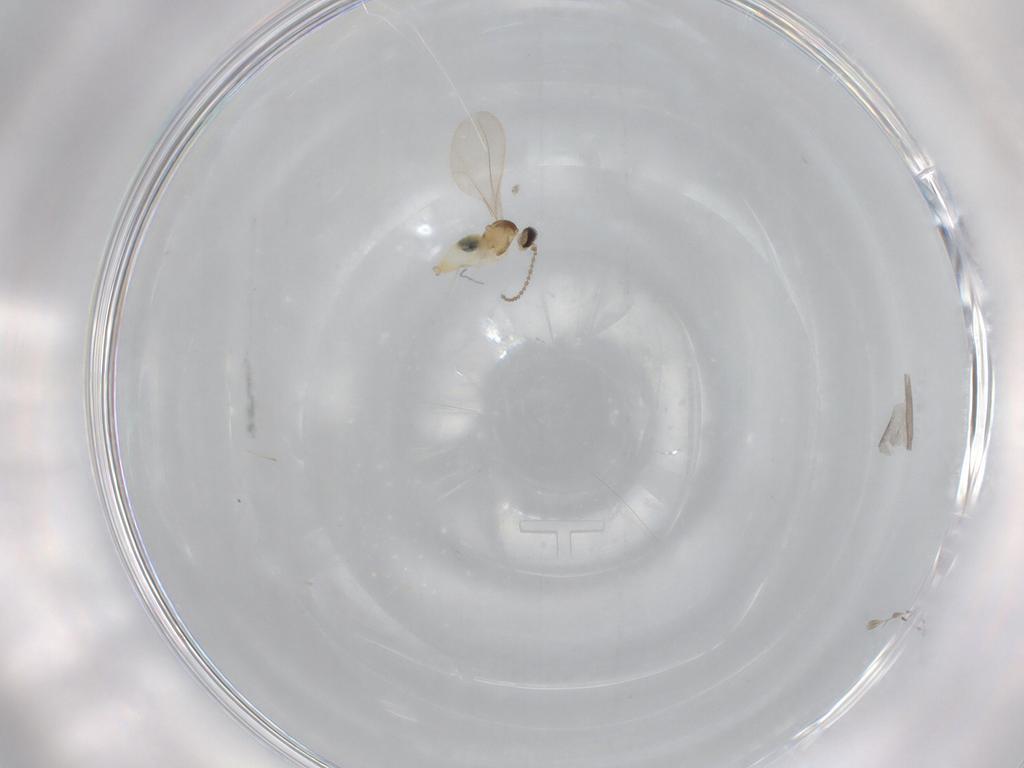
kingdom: Animalia
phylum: Arthropoda
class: Insecta
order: Diptera
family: Cecidomyiidae
